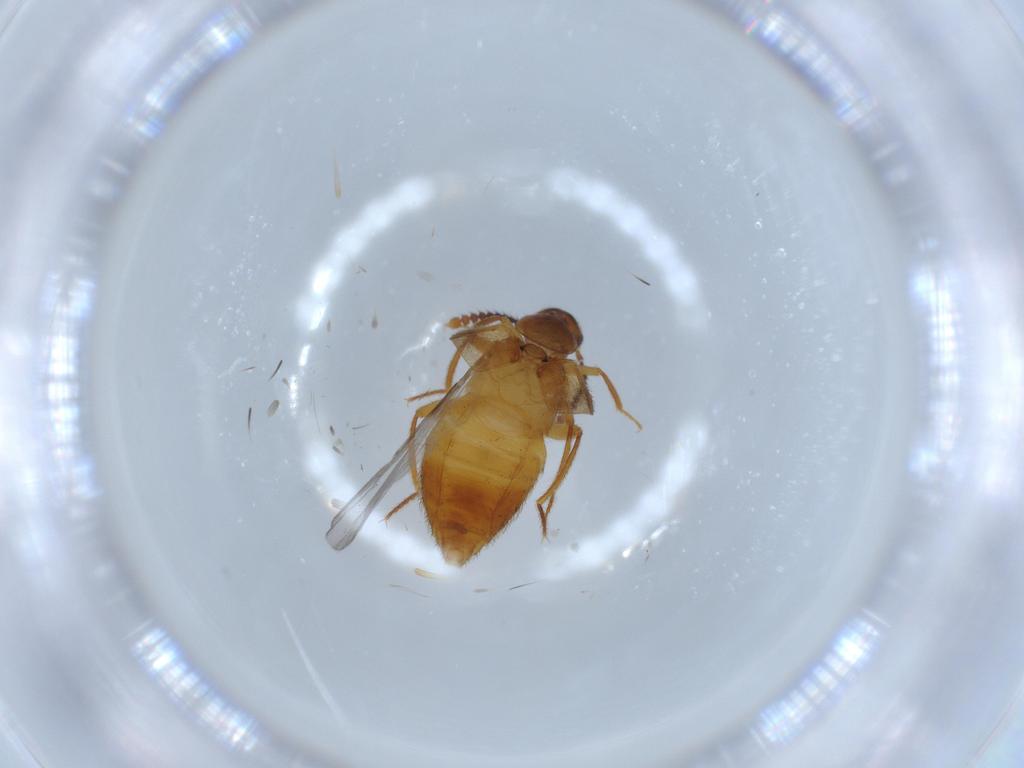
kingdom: Animalia
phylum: Arthropoda
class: Insecta
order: Coleoptera
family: Staphylinidae
